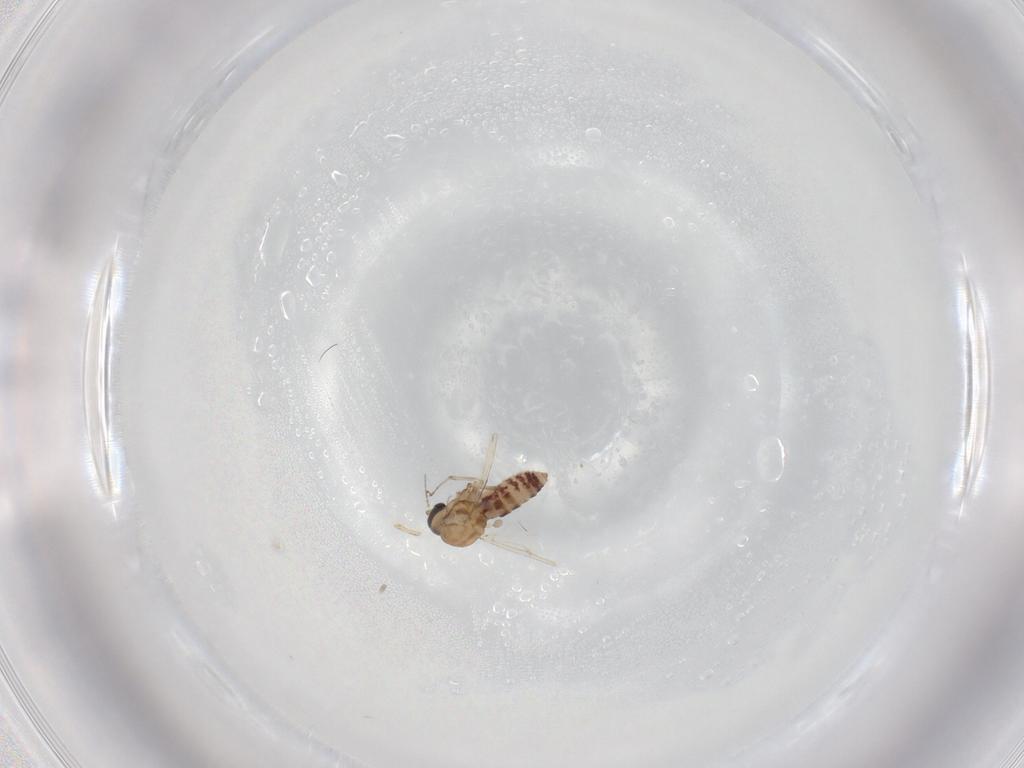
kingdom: Animalia
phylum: Arthropoda
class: Insecta
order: Diptera
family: Ceratopogonidae
